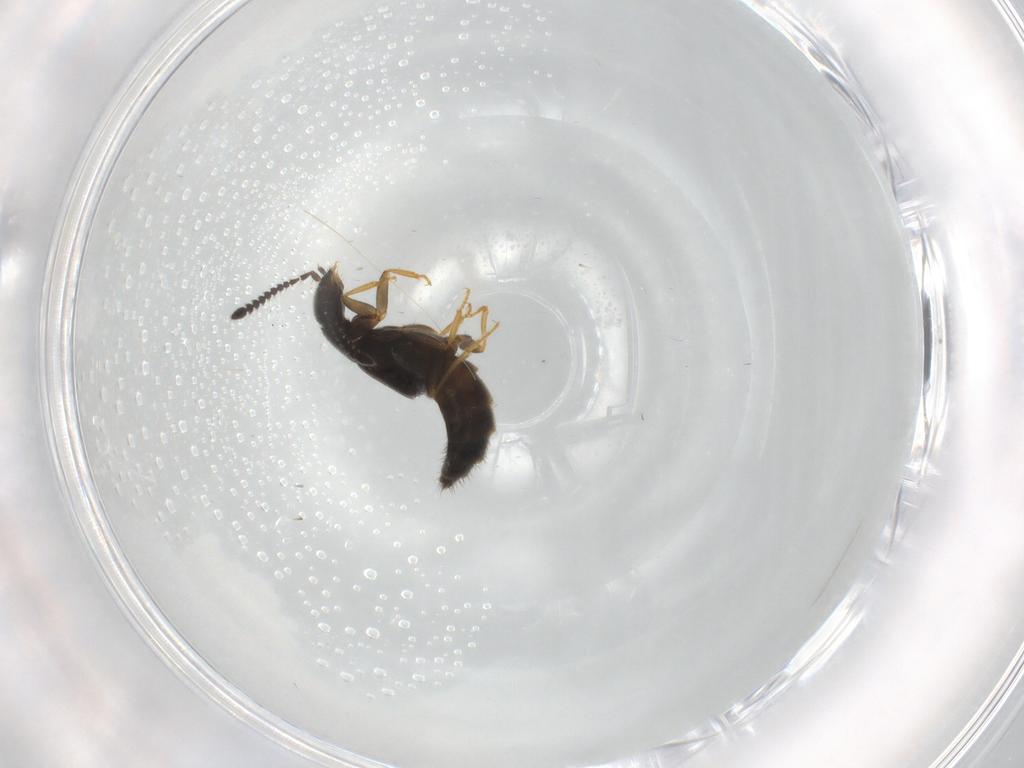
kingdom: Animalia
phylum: Arthropoda
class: Insecta
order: Coleoptera
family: Staphylinidae
